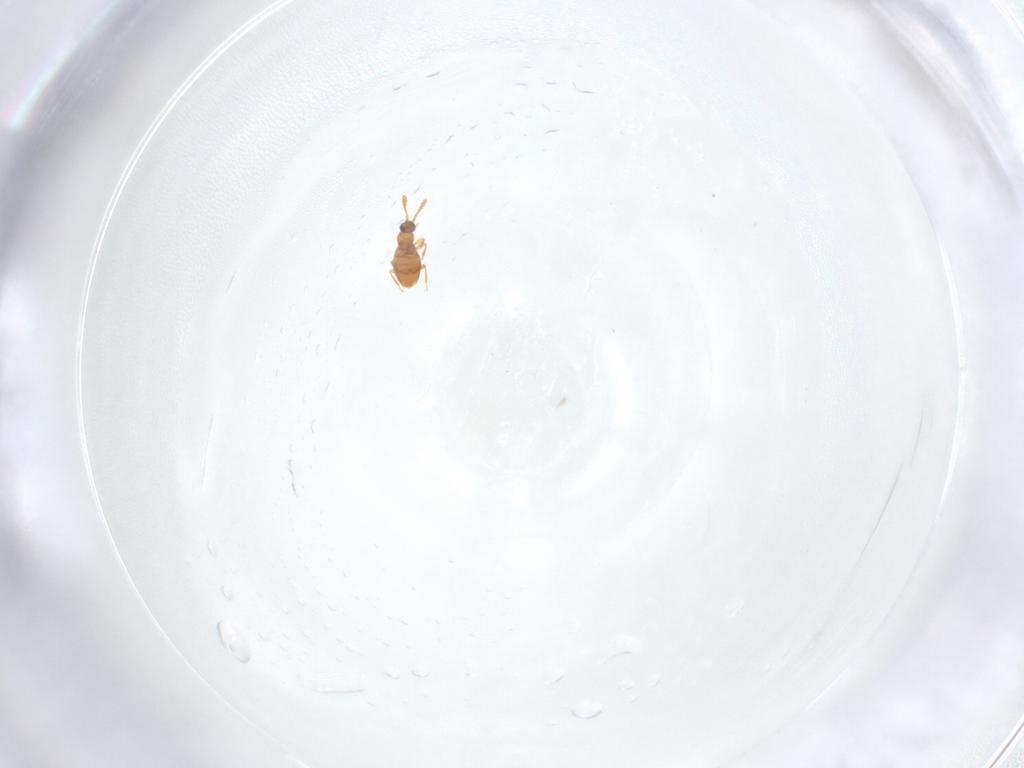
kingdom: Animalia
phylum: Arthropoda
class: Insecta
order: Coleoptera
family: Staphylinidae
